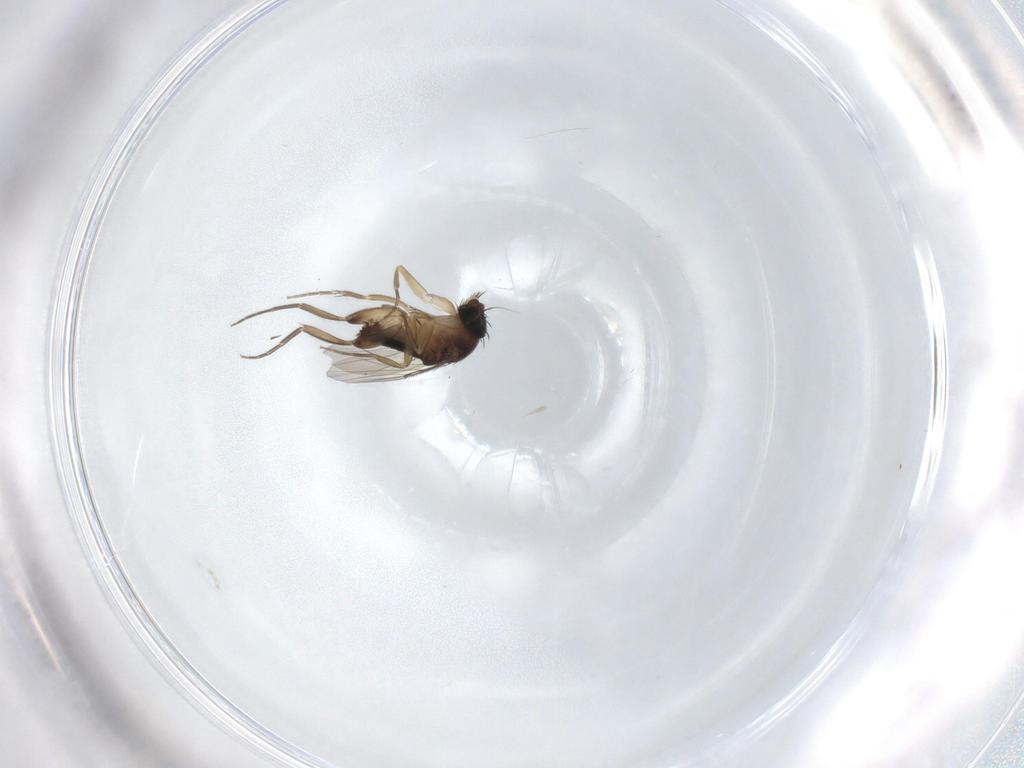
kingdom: Animalia
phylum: Arthropoda
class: Insecta
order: Diptera
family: Phoridae
